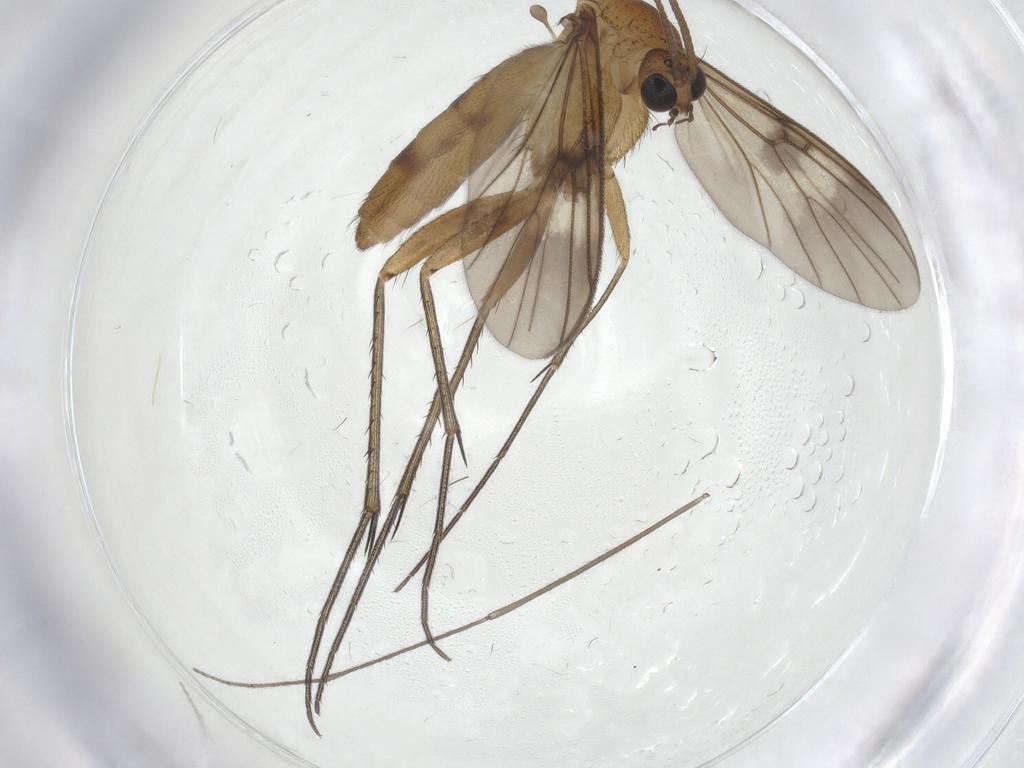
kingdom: Animalia
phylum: Arthropoda
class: Insecta
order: Diptera
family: Mycetophilidae
